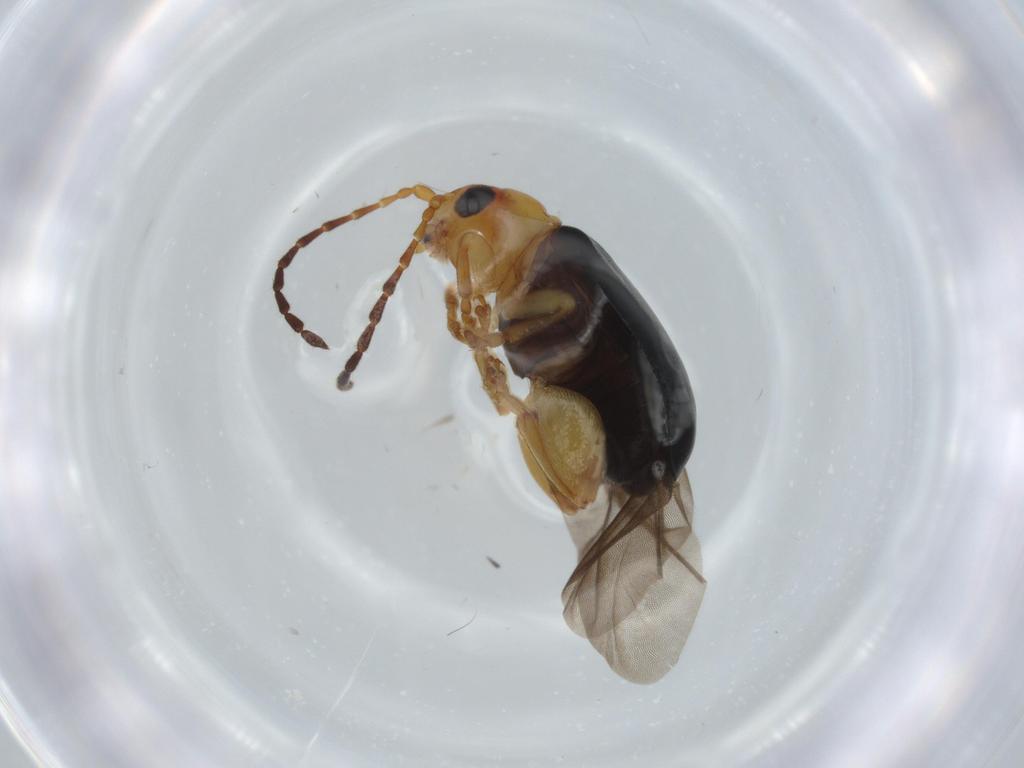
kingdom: Animalia
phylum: Arthropoda
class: Insecta
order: Coleoptera
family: Chrysomelidae
